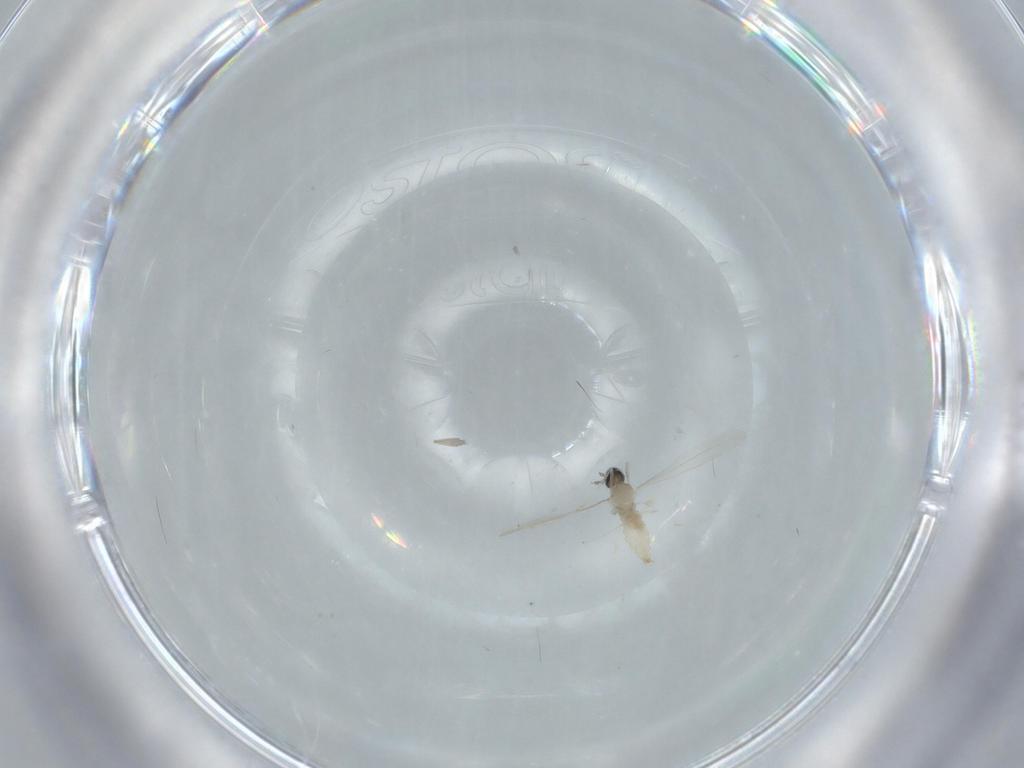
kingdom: Animalia
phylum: Arthropoda
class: Insecta
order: Diptera
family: Cecidomyiidae
